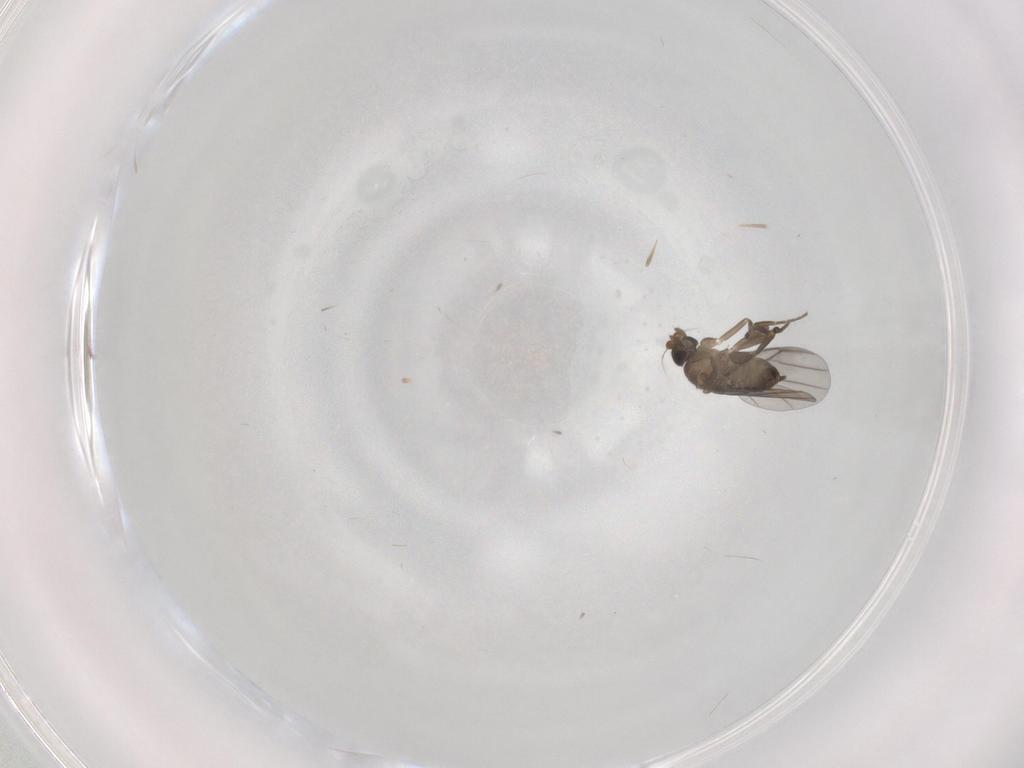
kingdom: Animalia
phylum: Arthropoda
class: Insecta
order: Diptera
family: Phoridae
